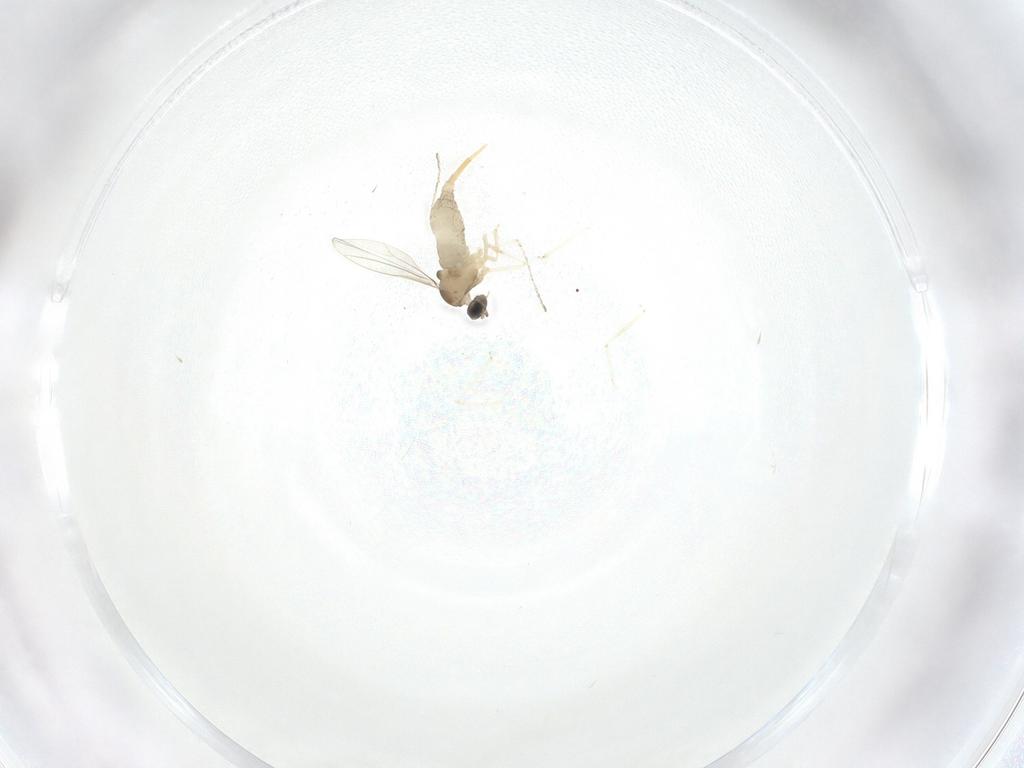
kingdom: Animalia
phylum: Arthropoda
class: Insecta
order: Diptera
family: Cecidomyiidae
